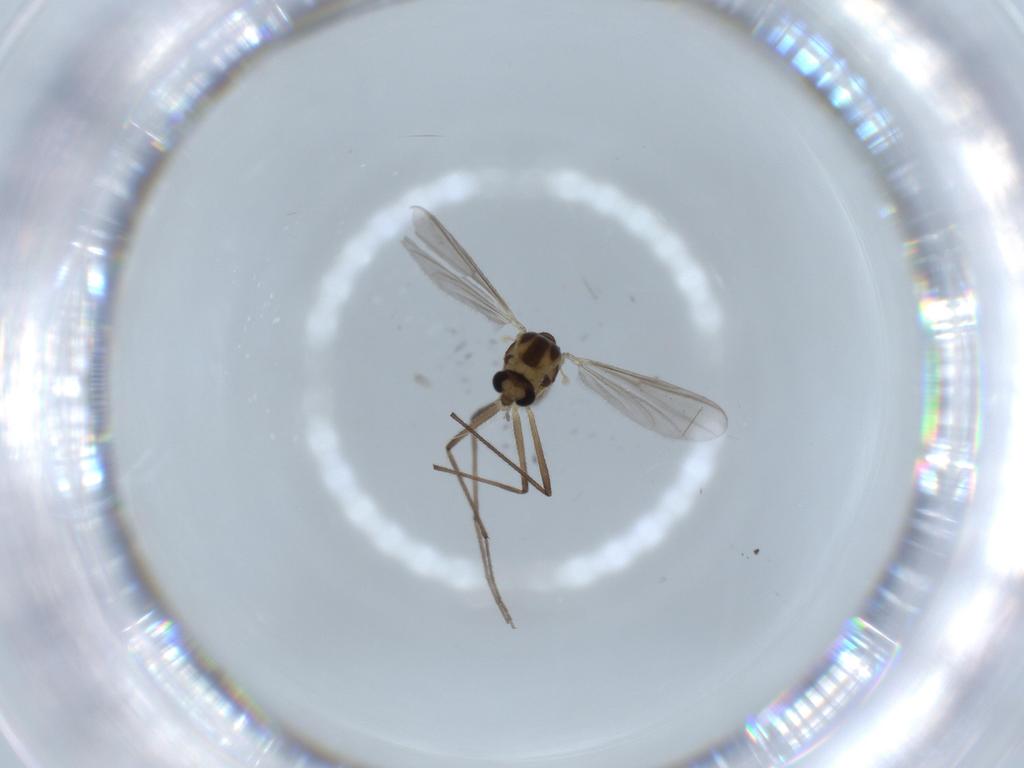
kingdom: Animalia
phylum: Arthropoda
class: Insecta
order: Diptera
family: Chironomidae
